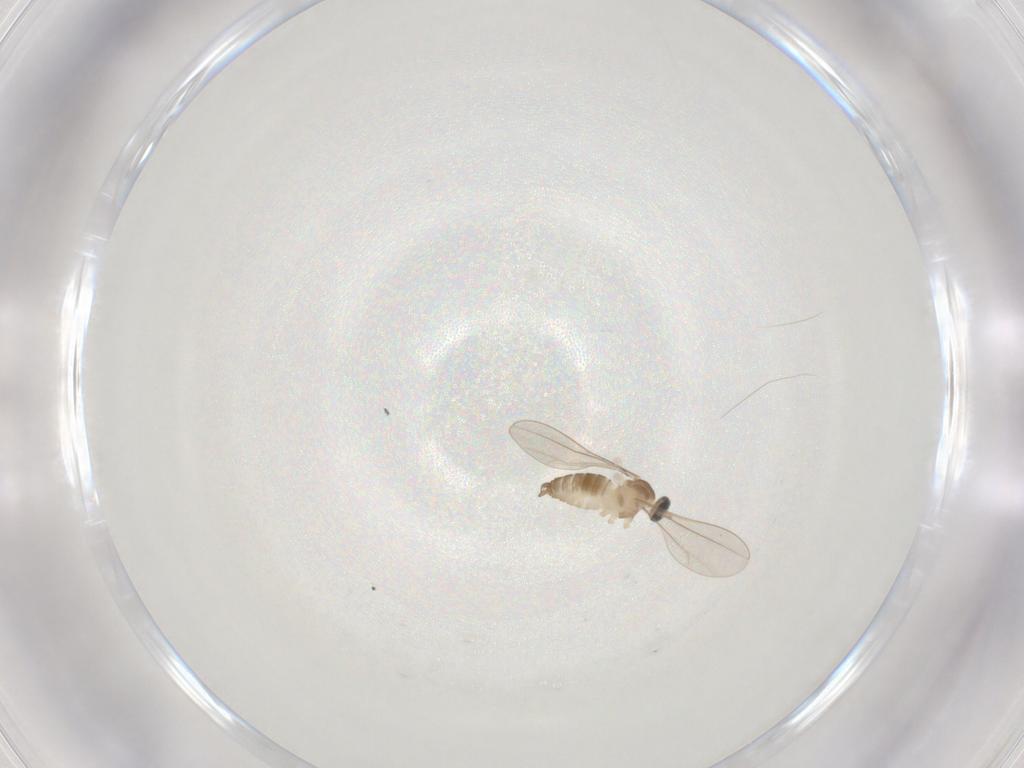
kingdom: Animalia
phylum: Arthropoda
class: Insecta
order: Diptera
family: Cecidomyiidae
